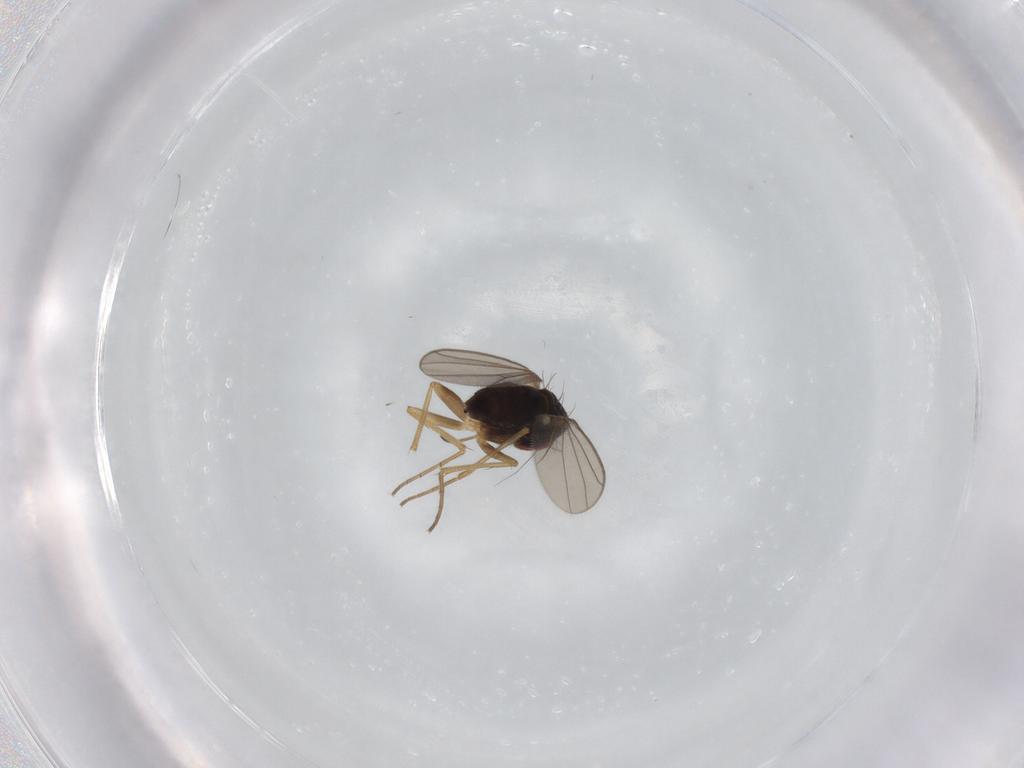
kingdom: Animalia
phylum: Arthropoda
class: Insecta
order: Diptera
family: Dolichopodidae
